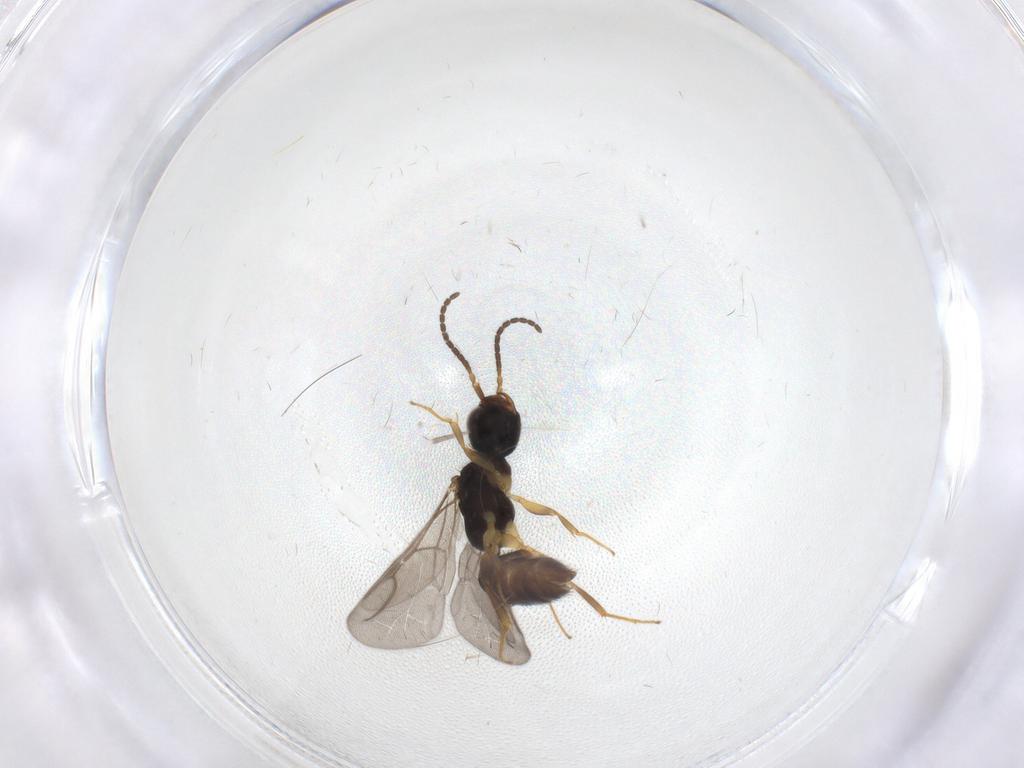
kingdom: Animalia
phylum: Arthropoda
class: Insecta
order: Hymenoptera
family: Bethylidae
